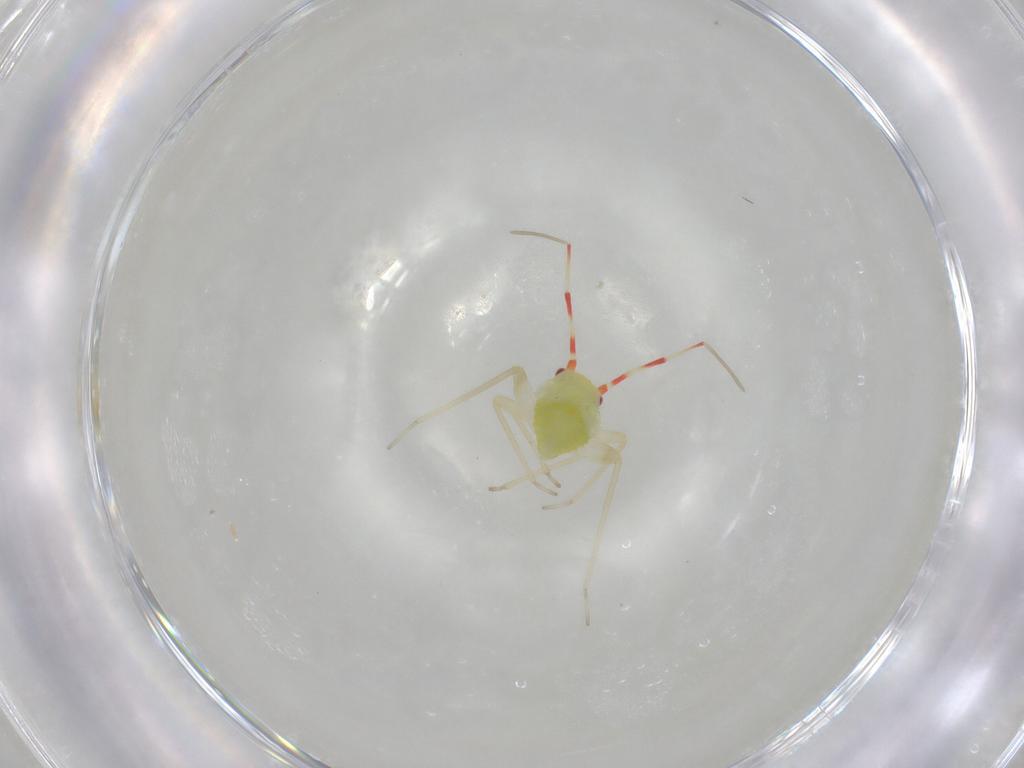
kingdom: Animalia
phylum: Arthropoda
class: Insecta
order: Hemiptera
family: Miridae
